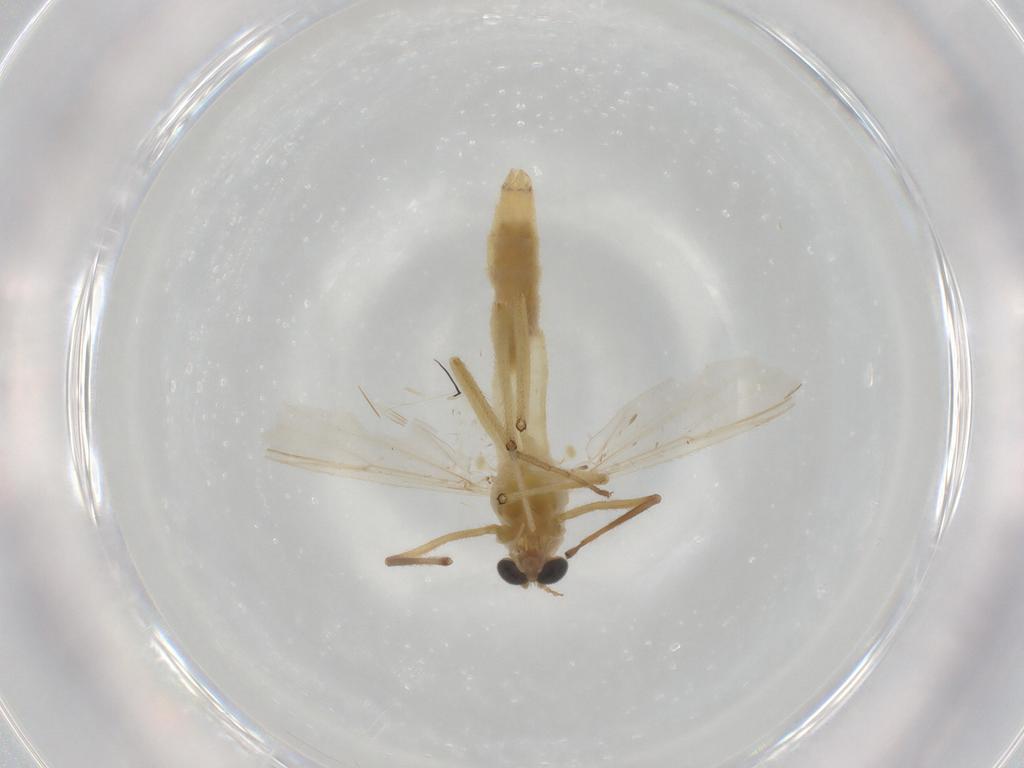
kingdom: Animalia
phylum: Arthropoda
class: Insecta
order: Diptera
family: Chironomidae
